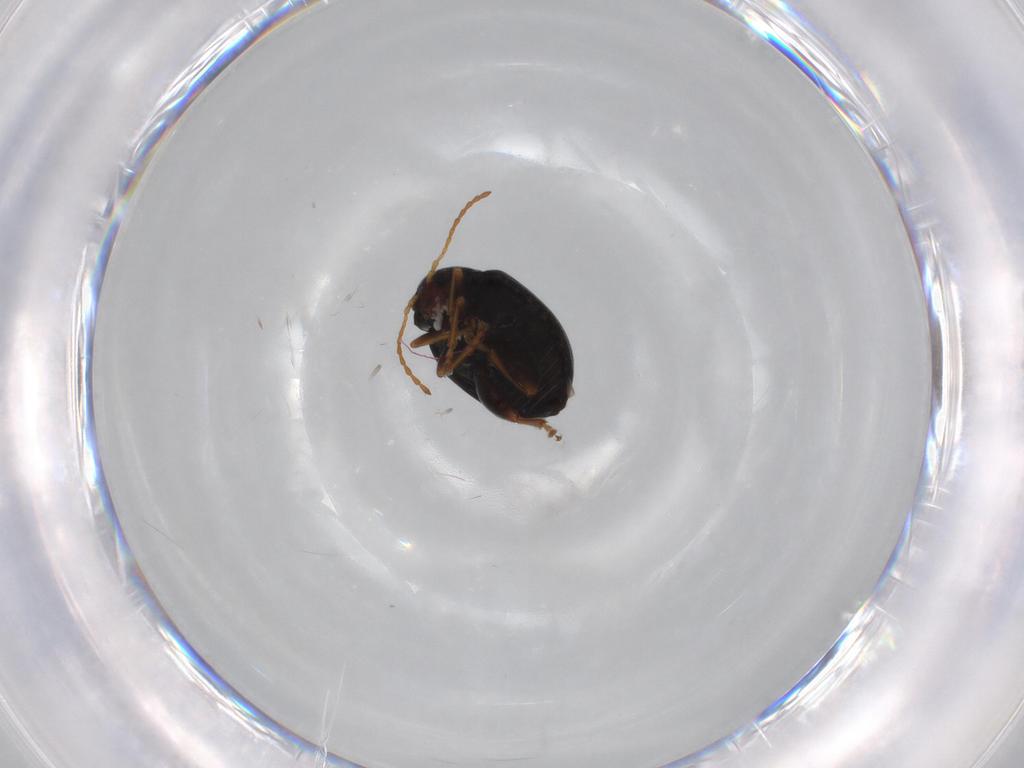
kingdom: Animalia
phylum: Arthropoda
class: Insecta
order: Coleoptera
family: Chrysomelidae
